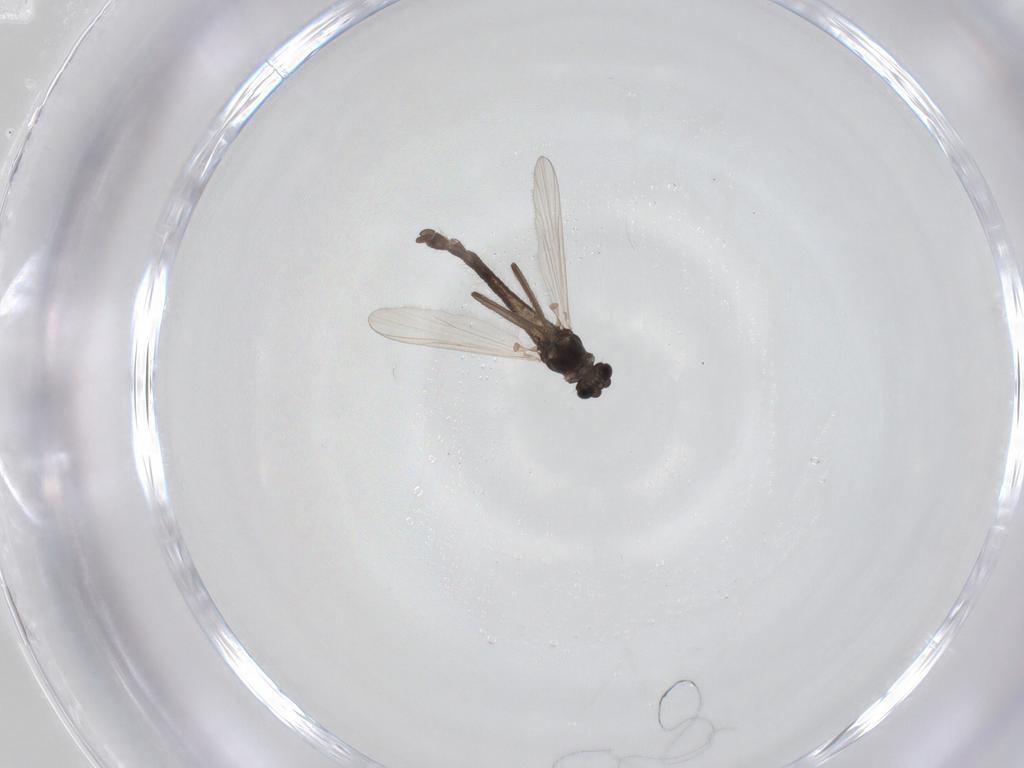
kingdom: Animalia
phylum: Arthropoda
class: Insecta
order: Diptera
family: Chironomidae
